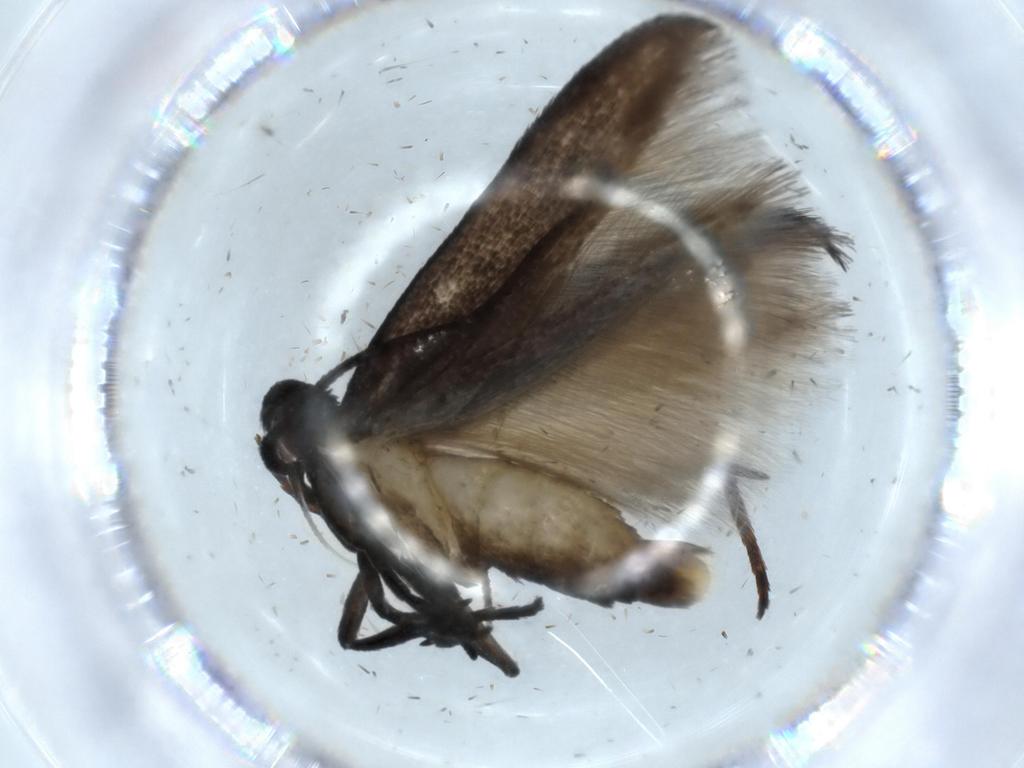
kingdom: Animalia
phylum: Arthropoda
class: Insecta
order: Lepidoptera
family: Cosmopterigidae
